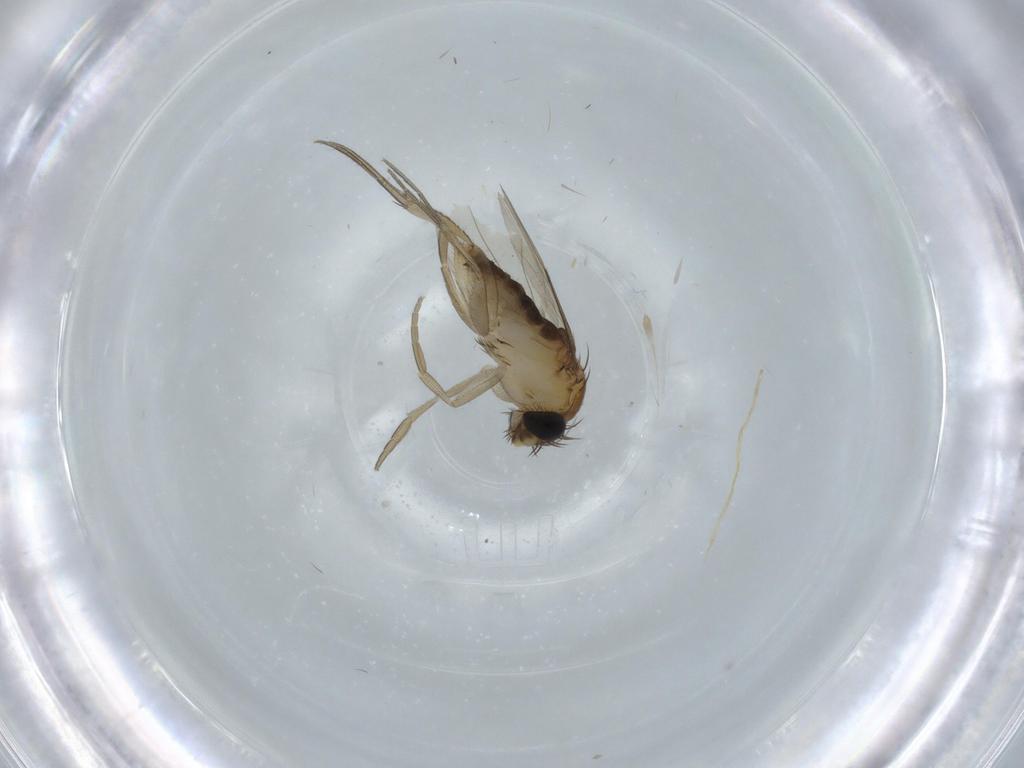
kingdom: Animalia
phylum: Arthropoda
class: Insecta
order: Diptera
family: Phoridae
